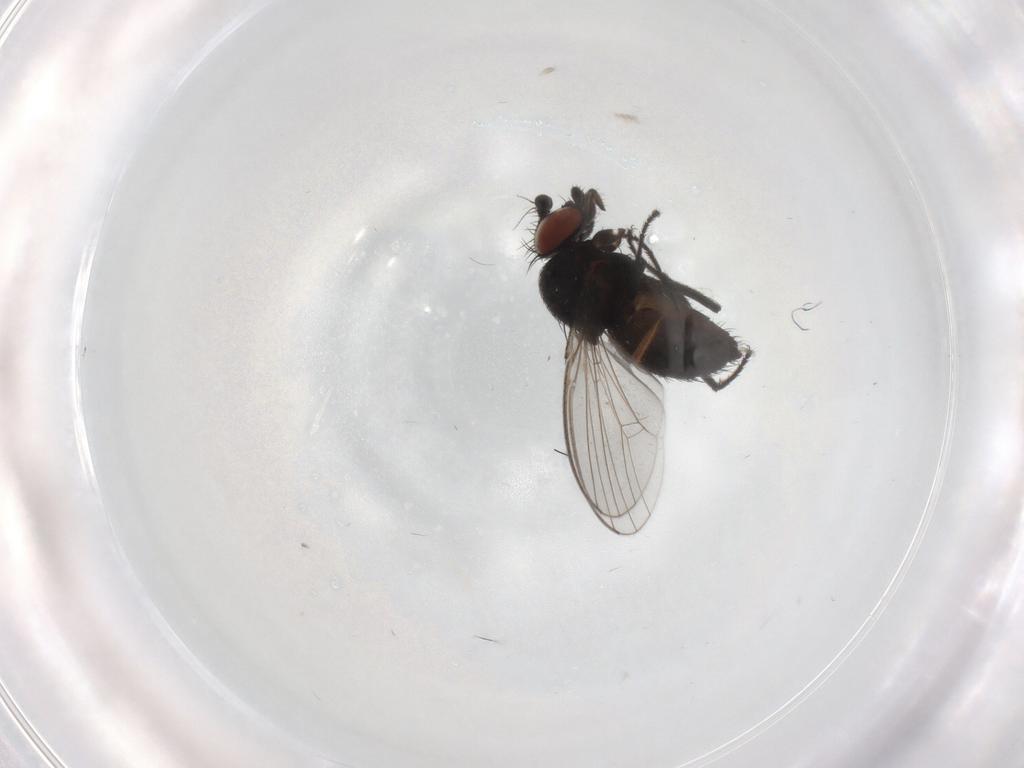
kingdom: Animalia
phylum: Arthropoda
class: Insecta
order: Diptera
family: Milichiidae
